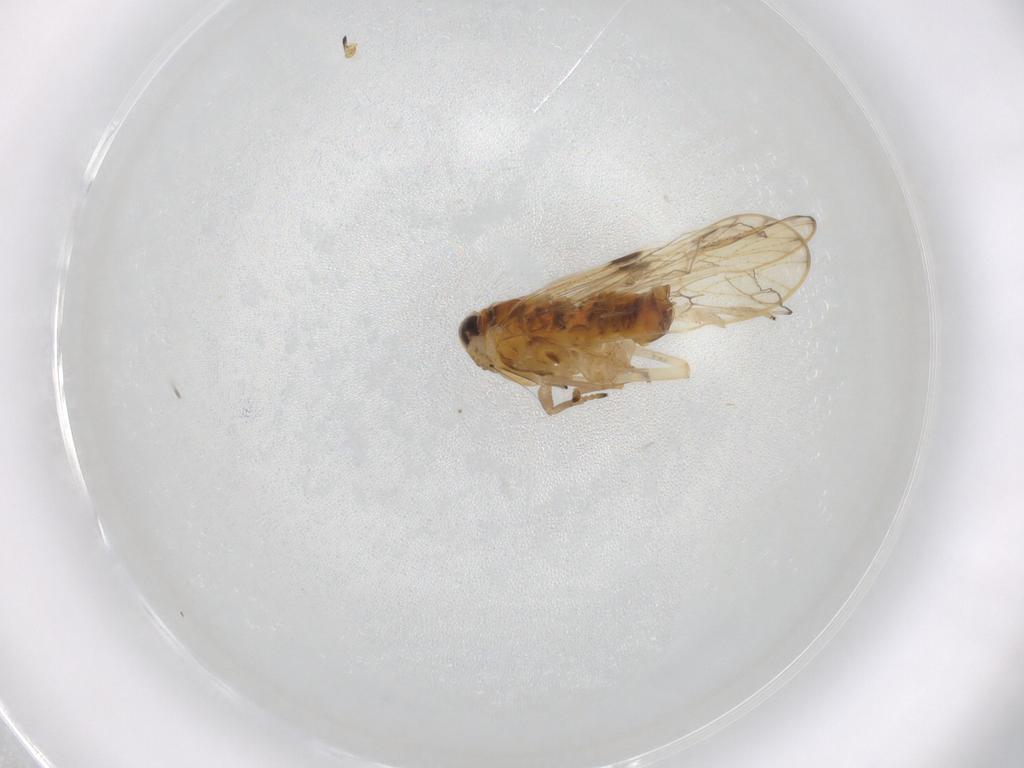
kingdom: Animalia
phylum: Arthropoda
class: Insecta
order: Hemiptera
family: Delphacidae
